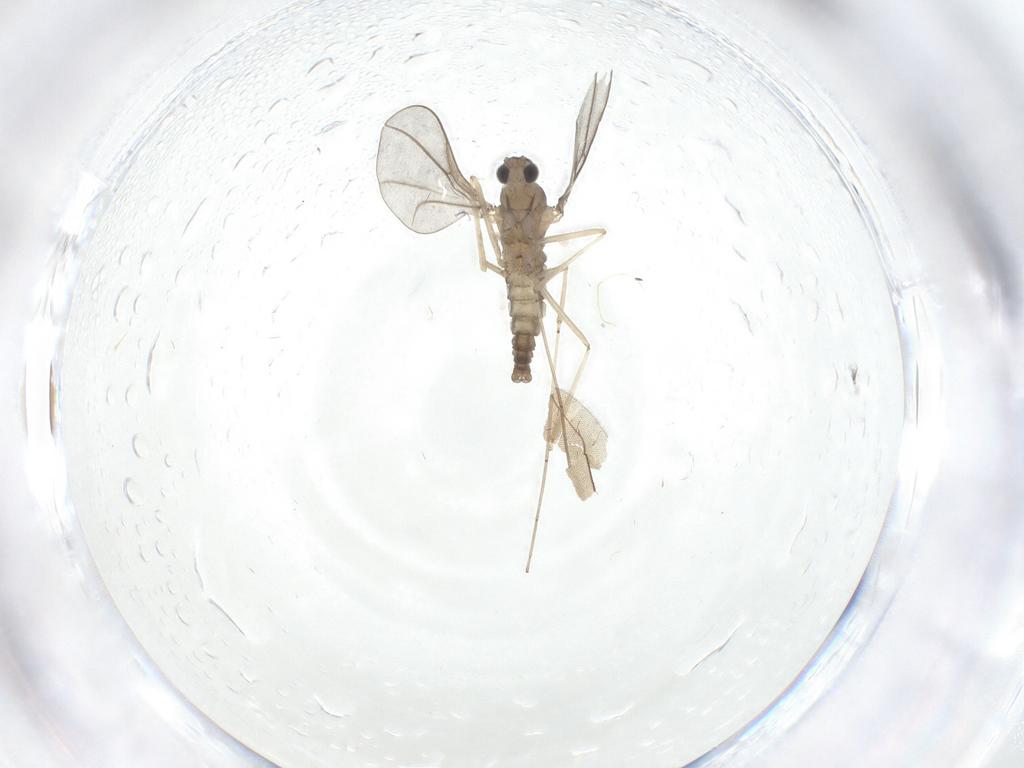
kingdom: Animalia
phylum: Arthropoda
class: Insecta
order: Diptera
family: Cecidomyiidae
